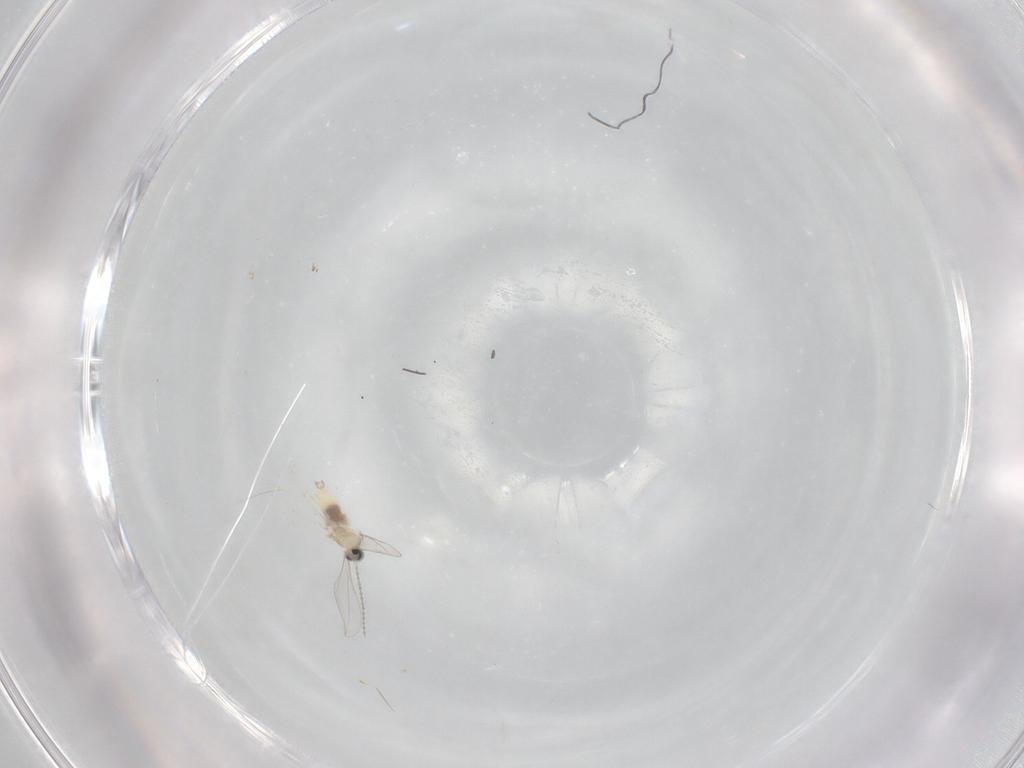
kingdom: Animalia
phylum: Arthropoda
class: Insecta
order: Diptera
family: Cecidomyiidae
